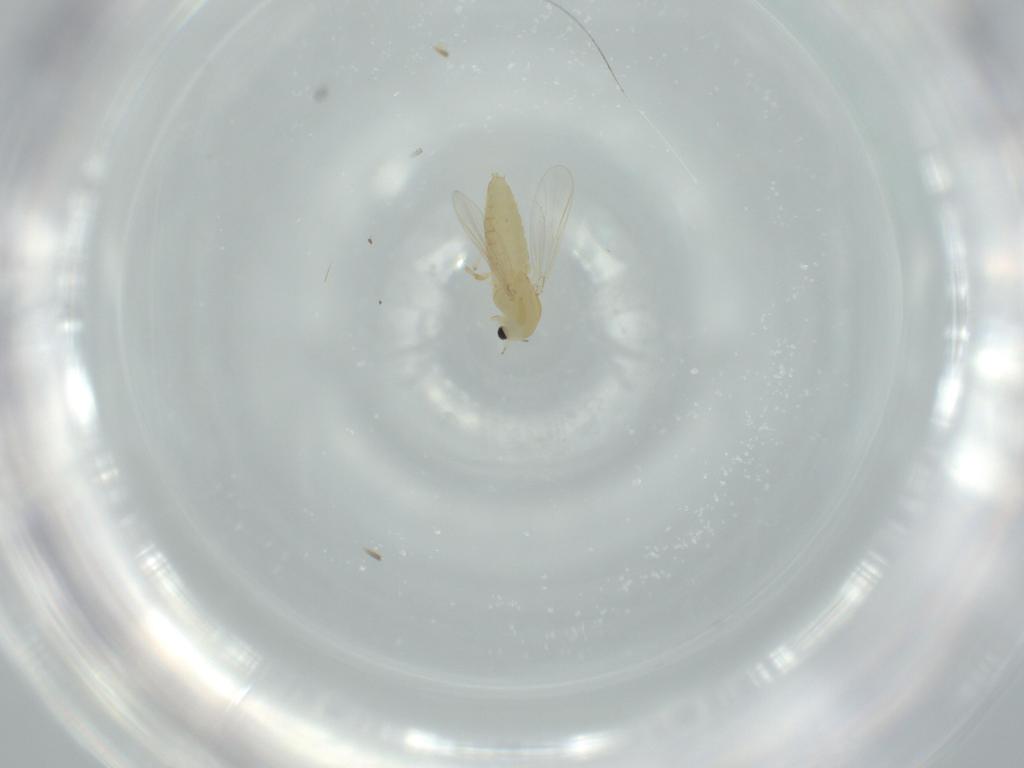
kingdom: Animalia
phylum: Arthropoda
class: Insecta
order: Diptera
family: Chironomidae
